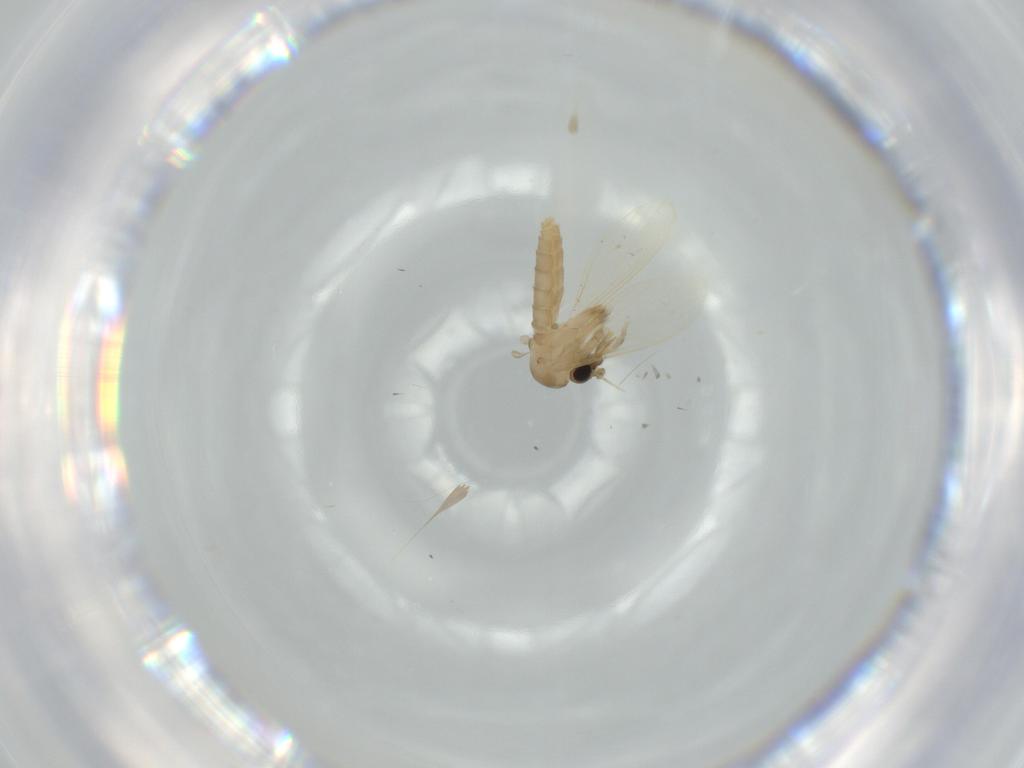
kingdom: Animalia
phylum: Arthropoda
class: Insecta
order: Diptera
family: Psychodidae
